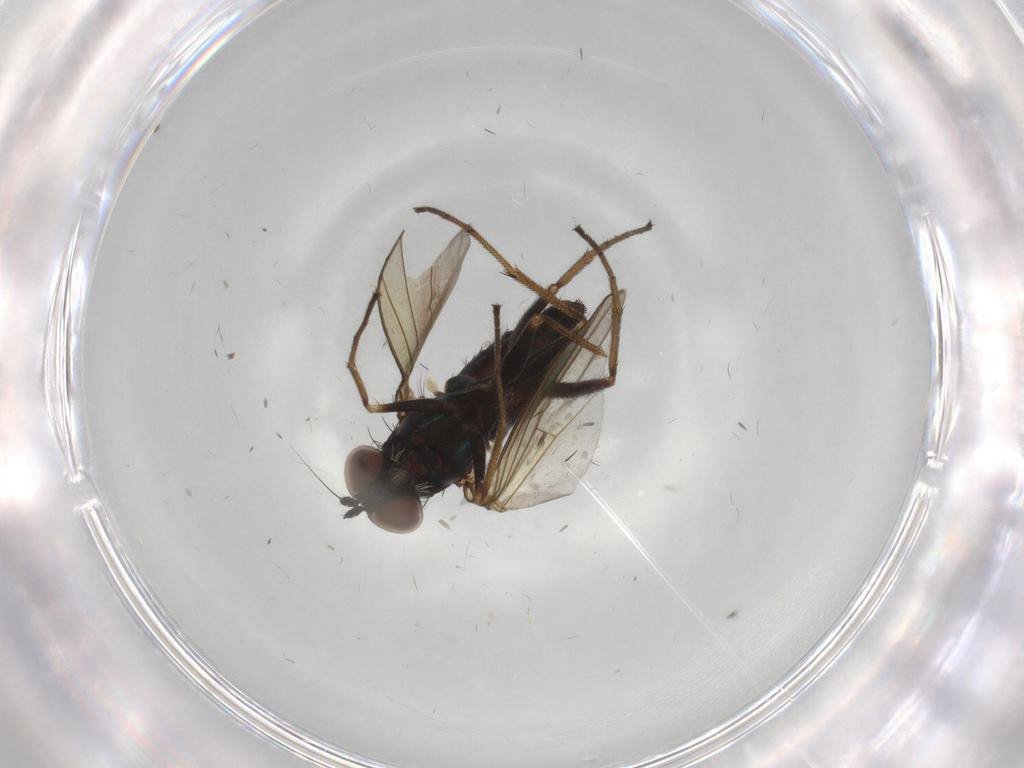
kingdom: Animalia
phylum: Arthropoda
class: Insecta
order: Diptera
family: Dolichopodidae
